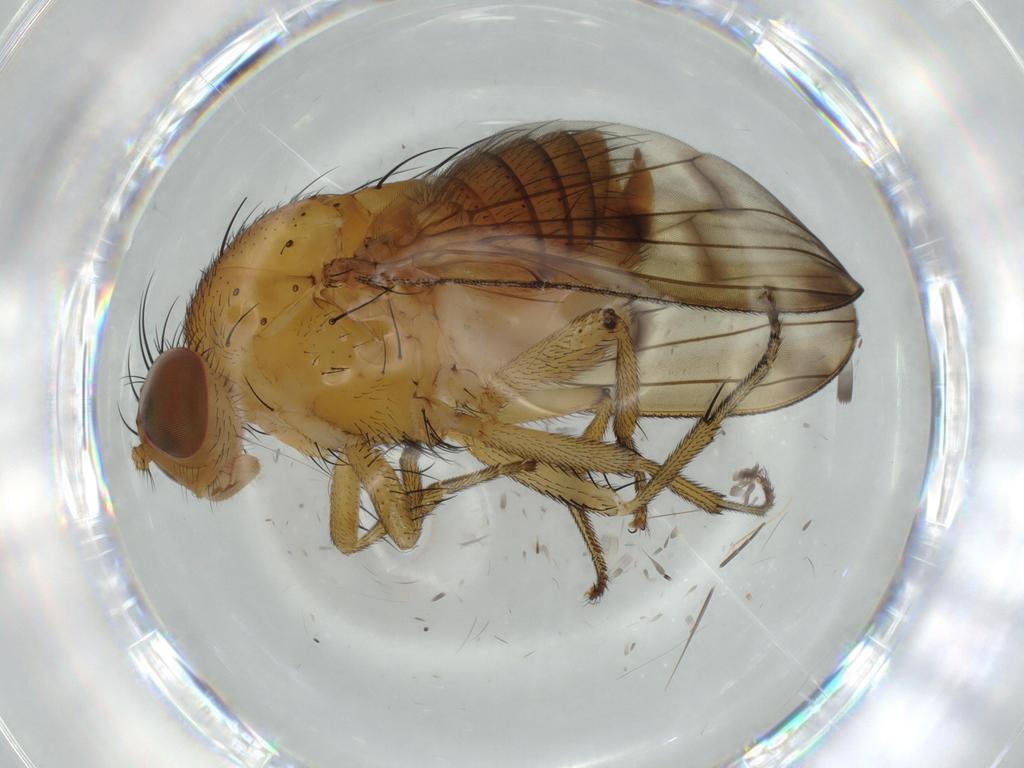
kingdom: Animalia
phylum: Arthropoda
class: Insecta
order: Diptera
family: Cecidomyiidae
